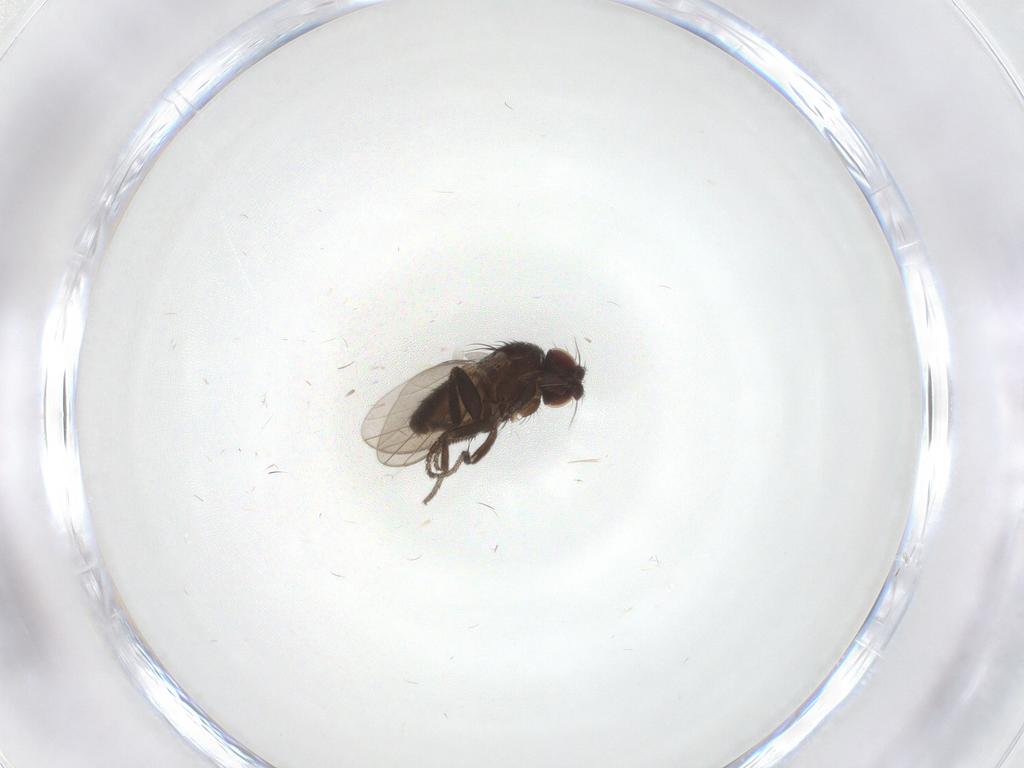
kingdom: Animalia
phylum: Arthropoda
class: Insecta
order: Diptera
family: Milichiidae
